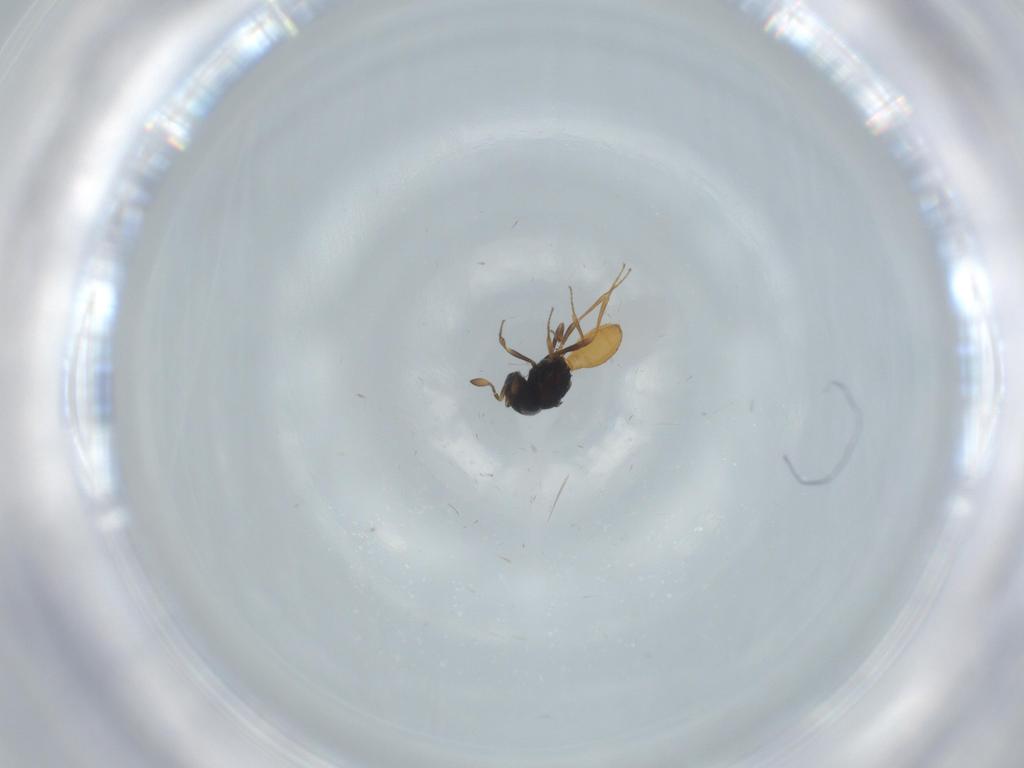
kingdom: Animalia
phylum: Arthropoda
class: Insecta
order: Hymenoptera
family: Scelionidae
